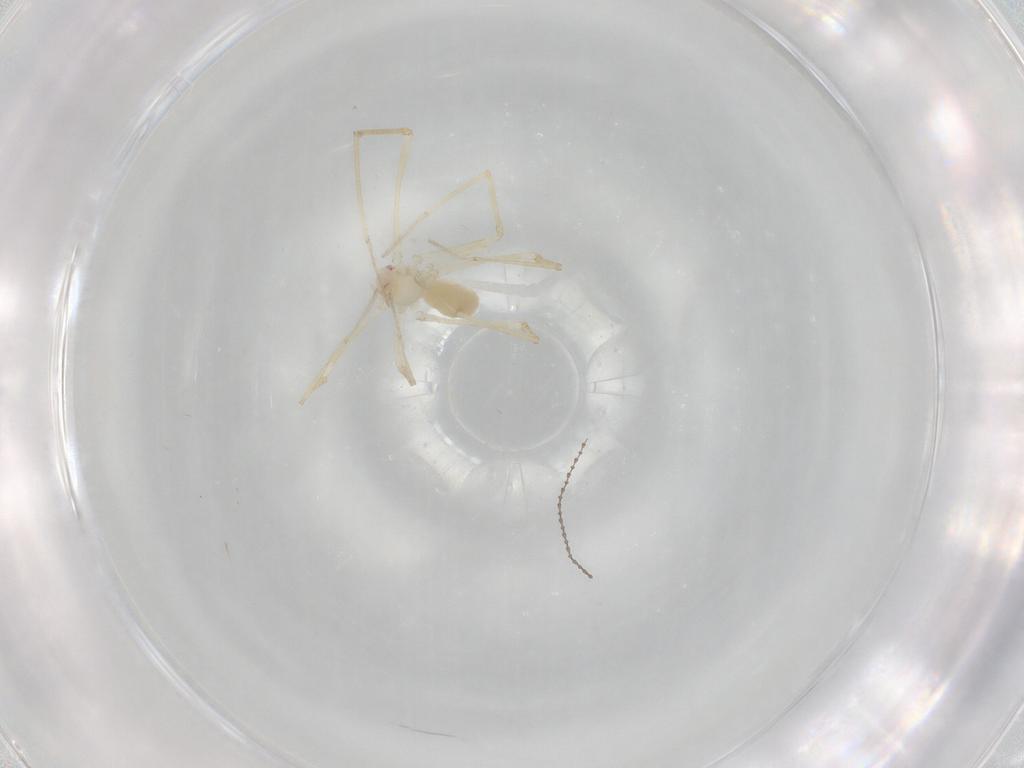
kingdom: Animalia
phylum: Arthropoda
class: Arachnida
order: Araneae
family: Pholcidae
